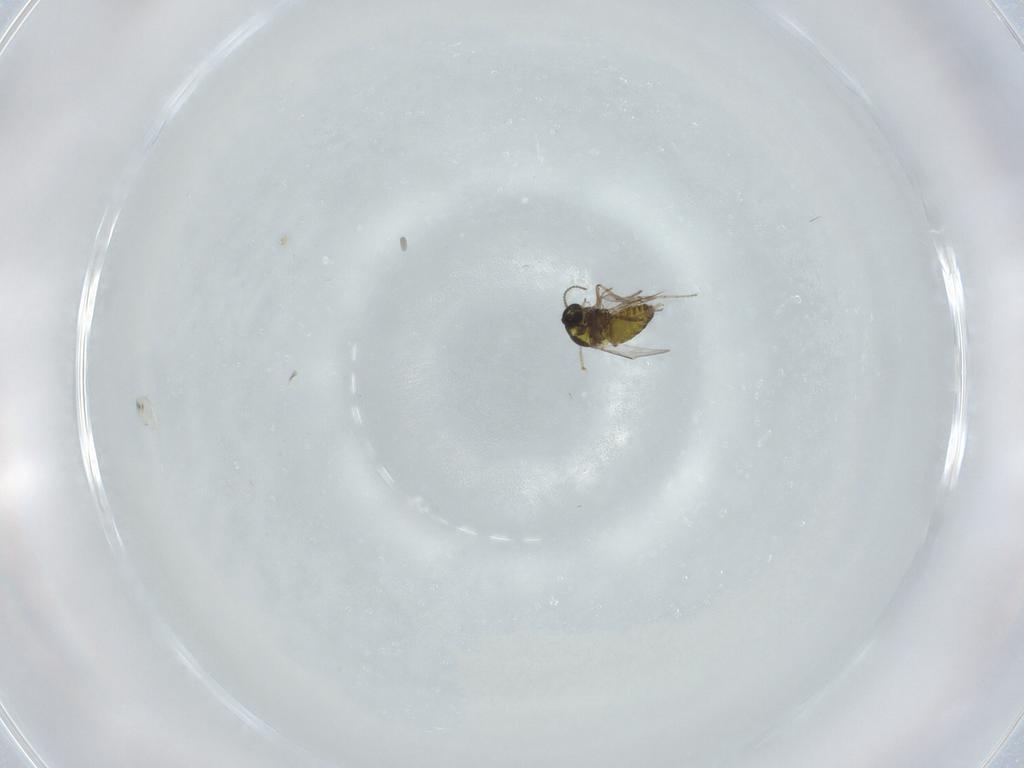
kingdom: Animalia
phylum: Arthropoda
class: Insecta
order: Diptera
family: Ceratopogonidae
